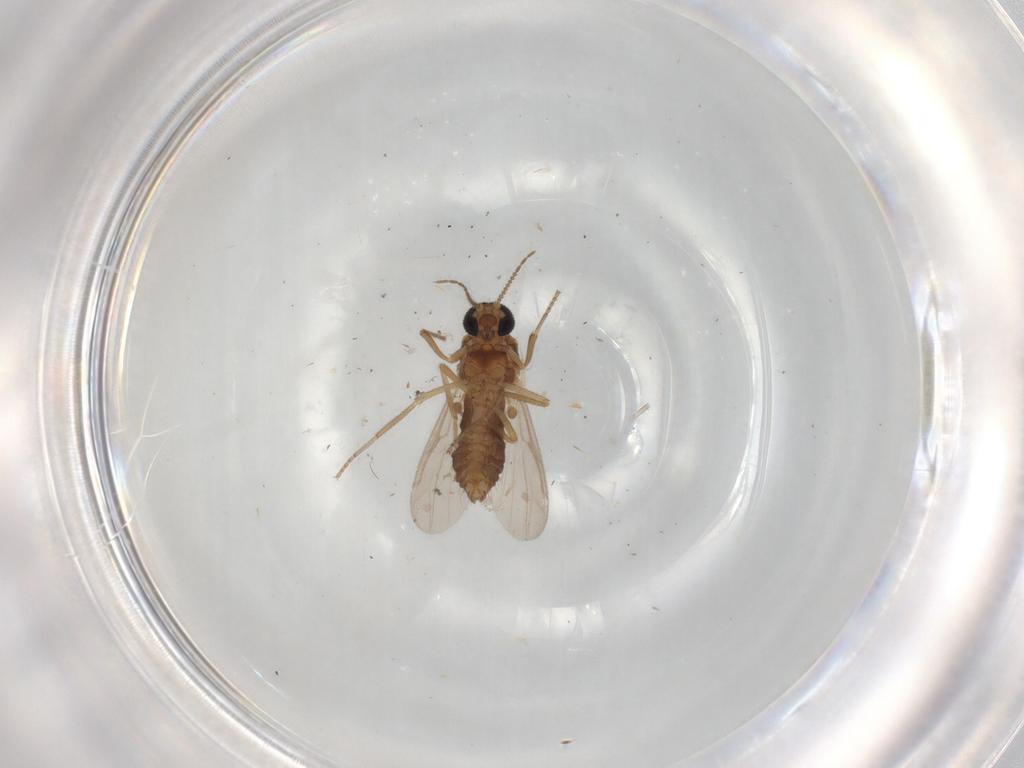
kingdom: Animalia
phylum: Arthropoda
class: Insecta
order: Diptera
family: Ceratopogonidae
